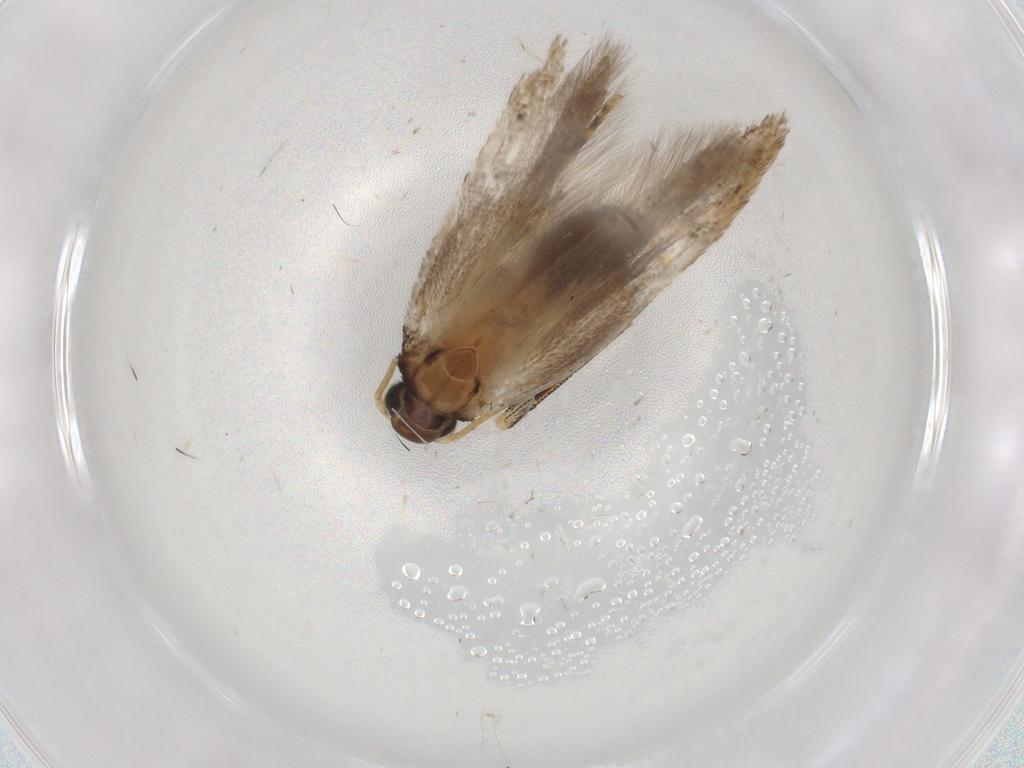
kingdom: Animalia
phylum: Arthropoda
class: Insecta
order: Lepidoptera
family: Gelechiidae
